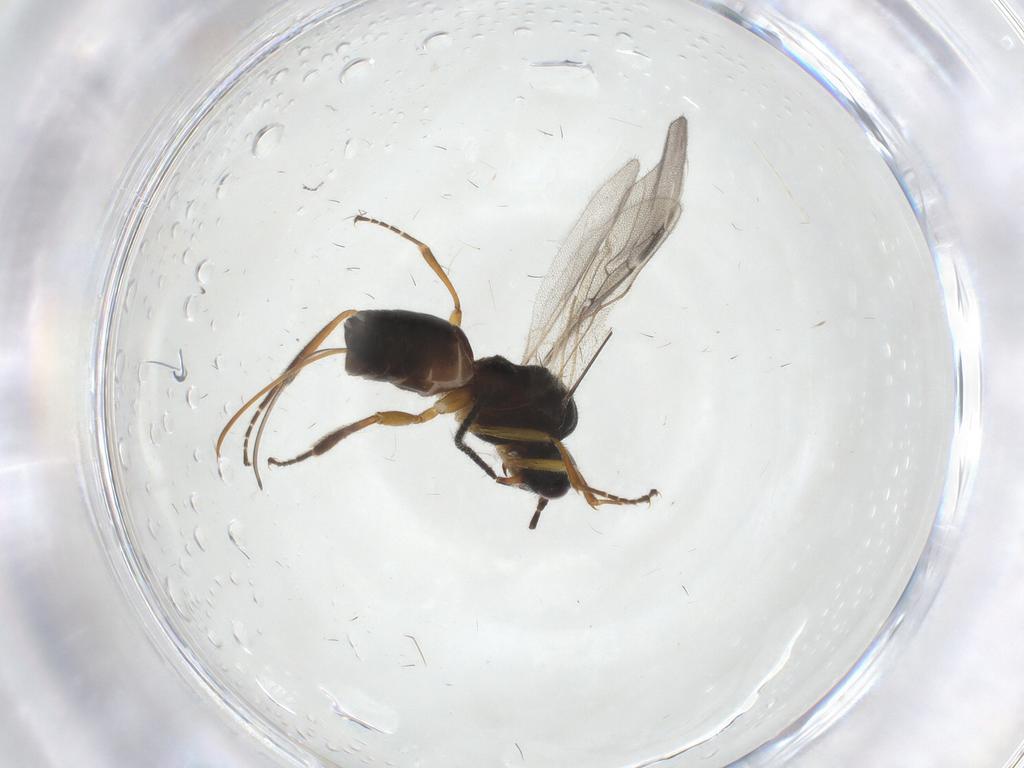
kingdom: Animalia
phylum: Arthropoda
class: Insecta
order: Hymenoptera
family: Braconidae
